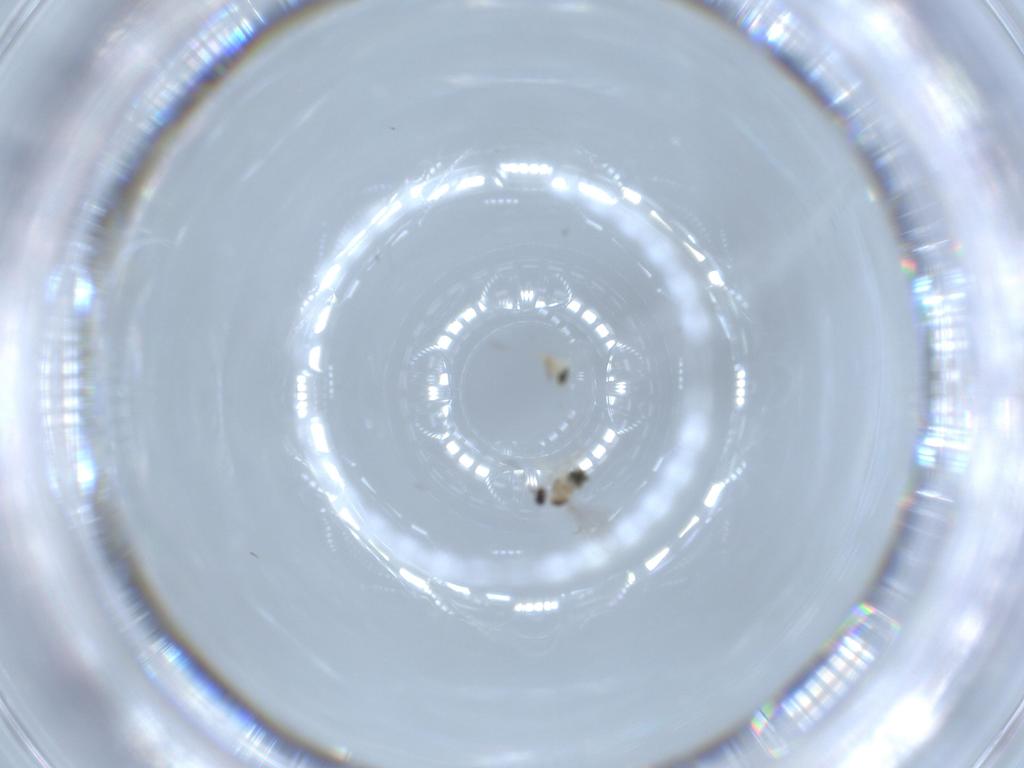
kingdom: Animalia
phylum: Arthropoda
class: Insecta
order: Diptera
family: Cecidomyiidae
